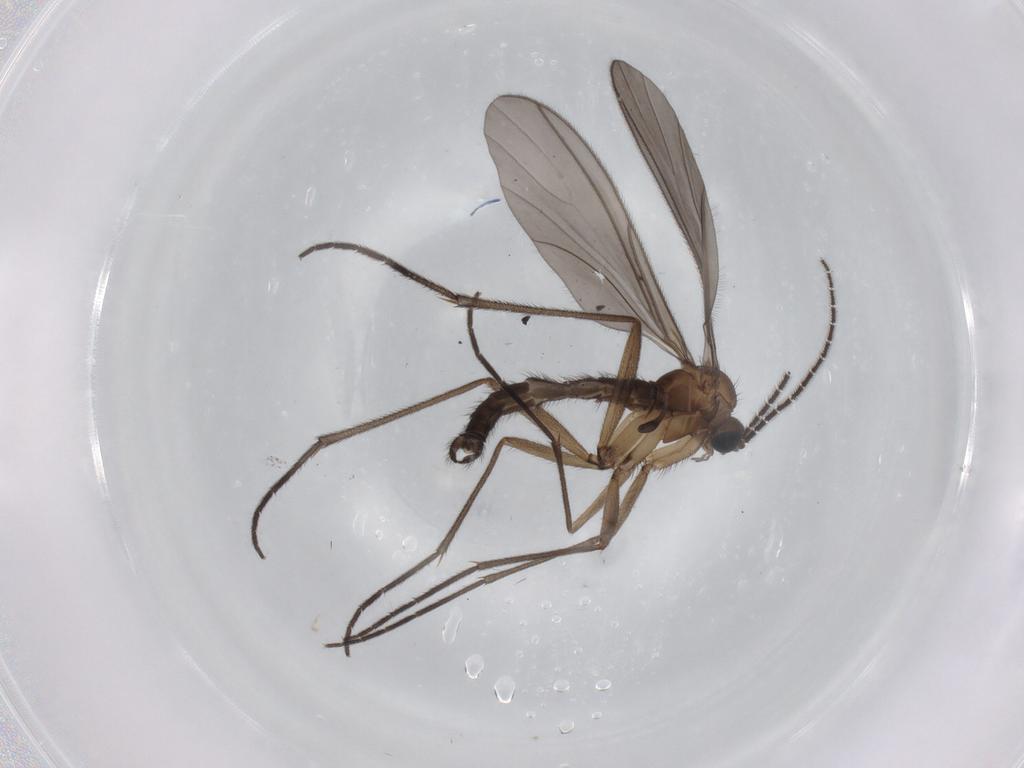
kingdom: Animalia
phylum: Arthropoda
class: Insecta
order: Diptera
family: Sciaridae
